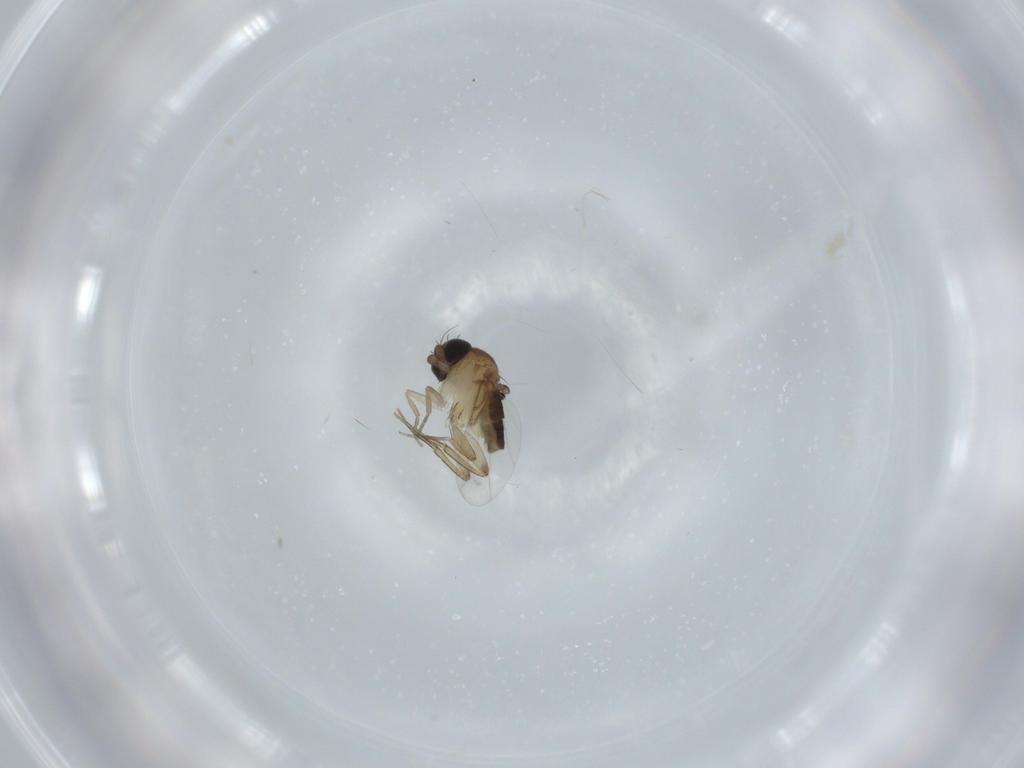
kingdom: Animalia
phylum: Arthropoda
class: Insecta
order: Diptera
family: Phoridae
